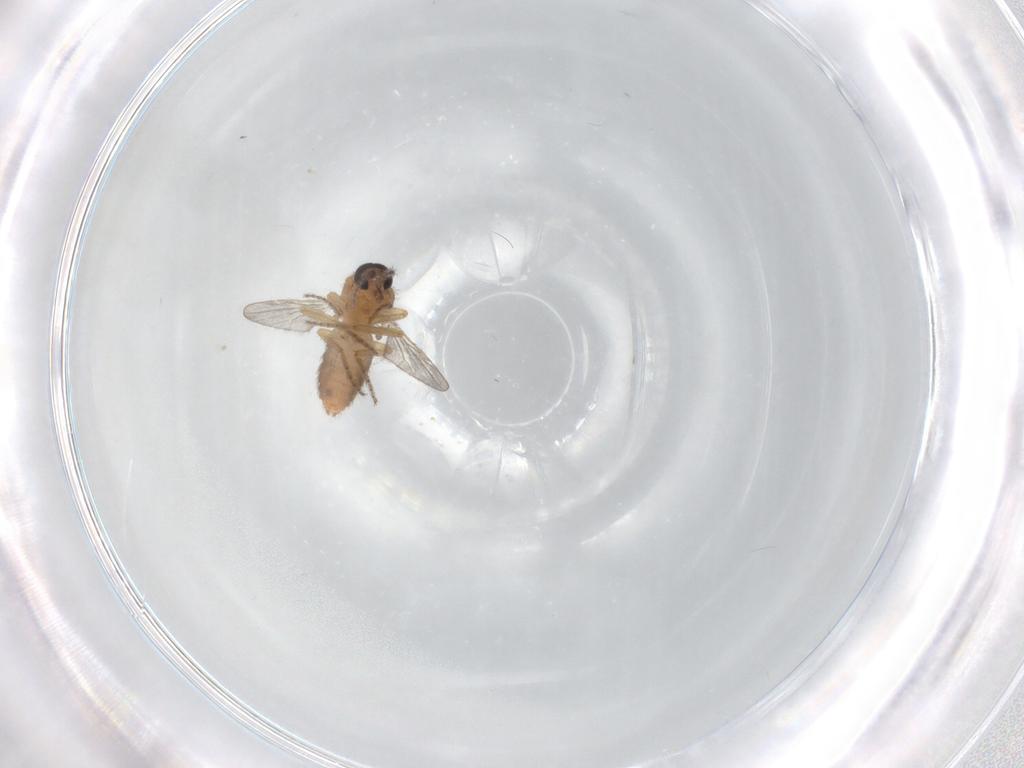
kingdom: Animalia
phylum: Arthropoda
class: Insecta
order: Diptera
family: Ceratopogonidae
